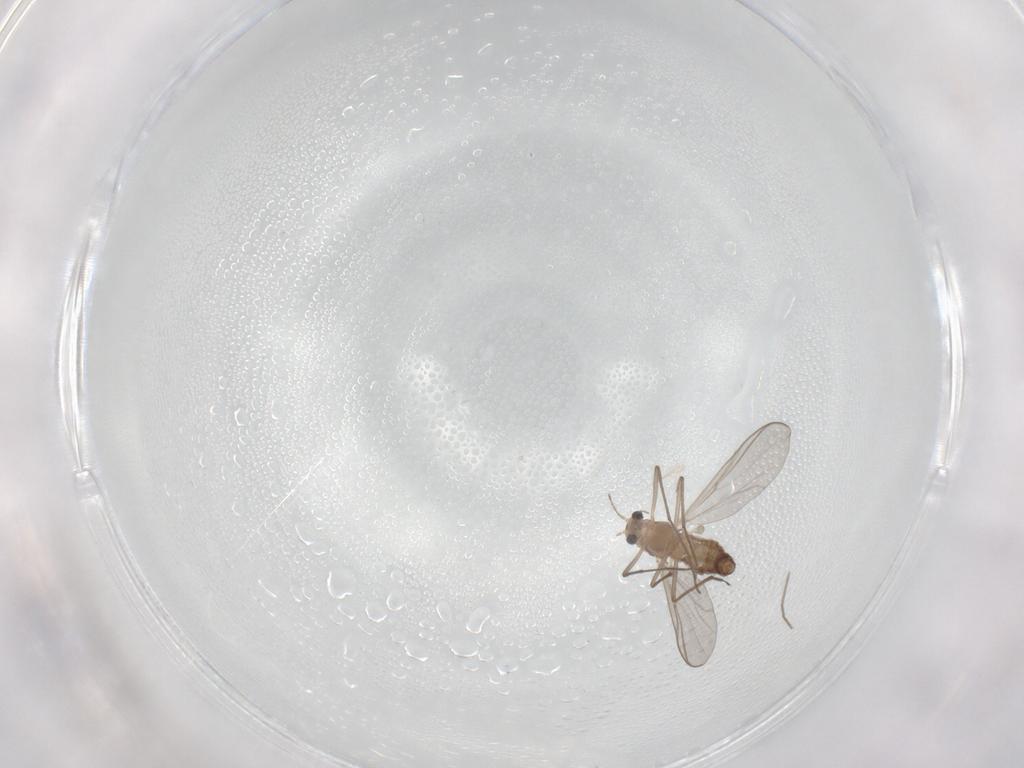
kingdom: Animalia
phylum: Arthropoda
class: Insecta
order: Diptera
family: Chironomidae
